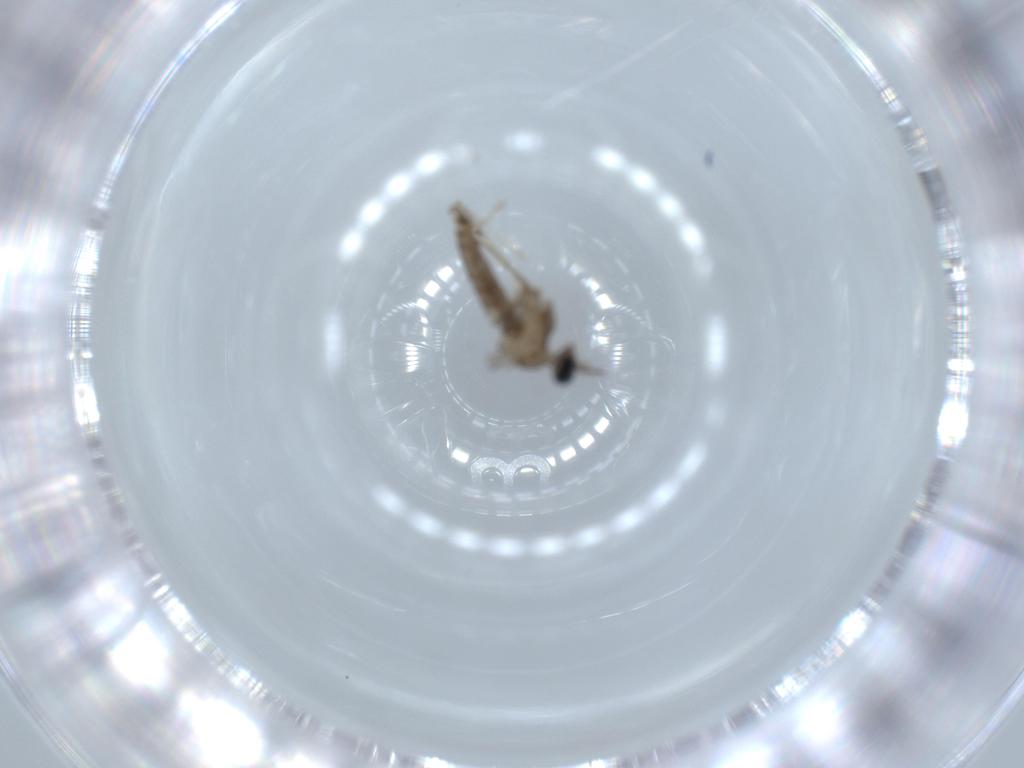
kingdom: Animalia
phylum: Arthropoda
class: Insecta
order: Diptera
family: Cecidomyiidae
